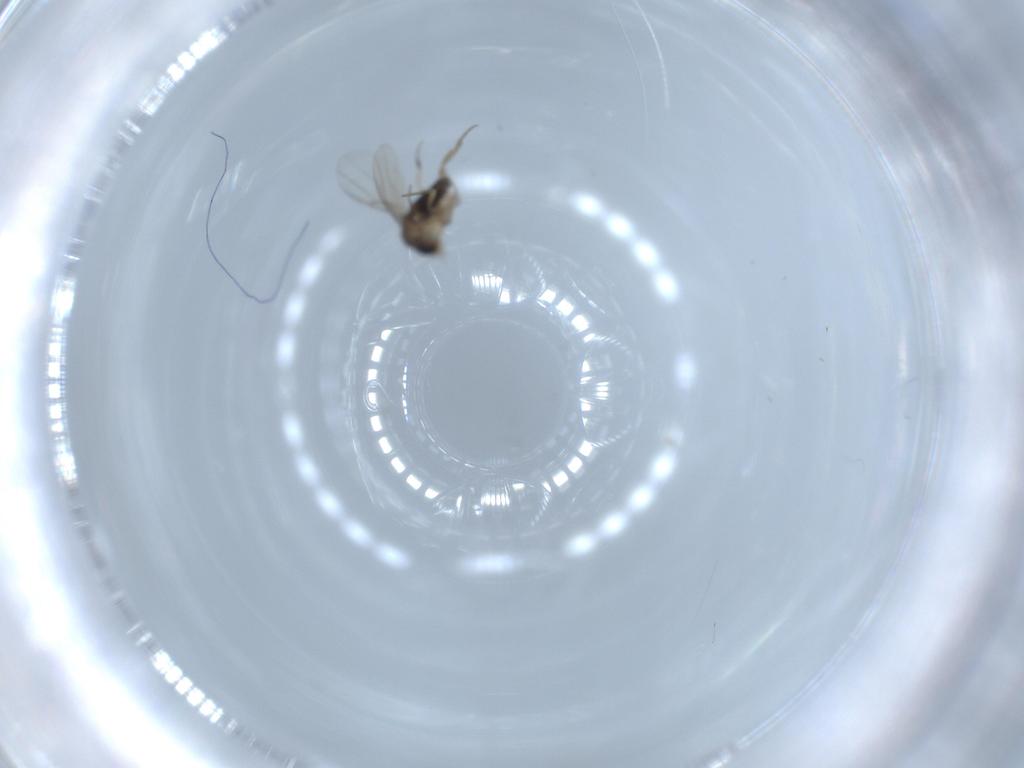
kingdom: Animalia
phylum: Arthropoda
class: Insecta
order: Diptera
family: Phoridae
